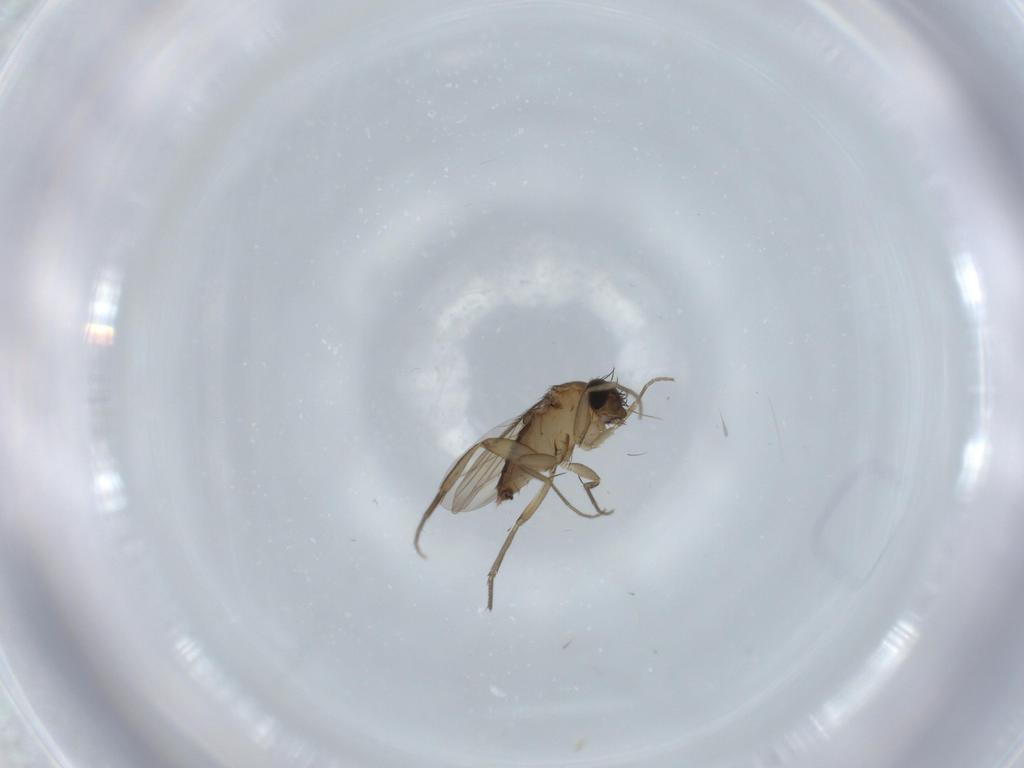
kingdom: Animalia
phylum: Arthropoda
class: Insecta
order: Diptera
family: Phoridae
